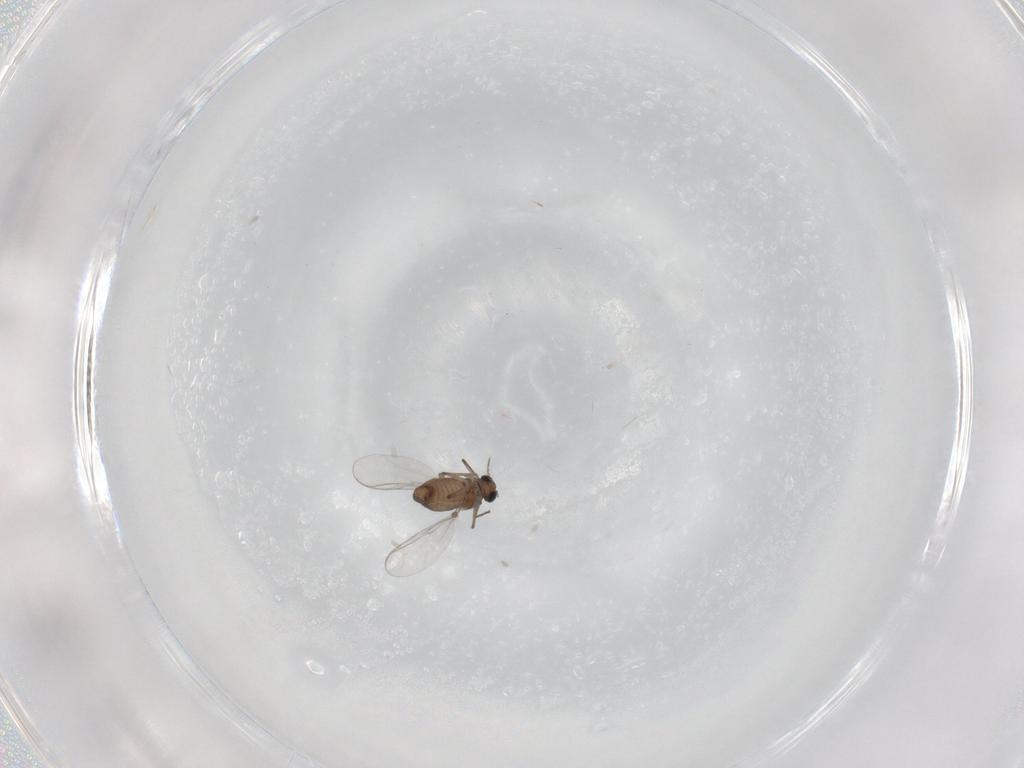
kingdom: Animalia
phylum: Arthropoda
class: Insecta
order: Diptera
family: Chironomidae
